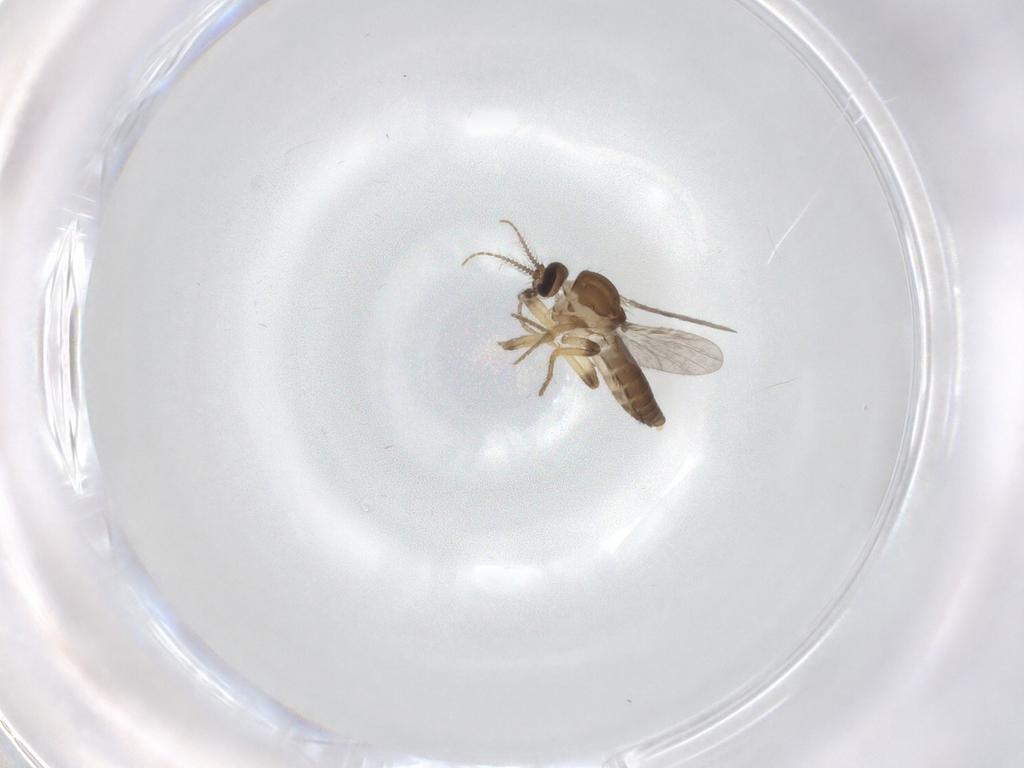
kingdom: Animalia
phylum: Arthropoda
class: Insecta
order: Diptera
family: Ceratopogonidae
